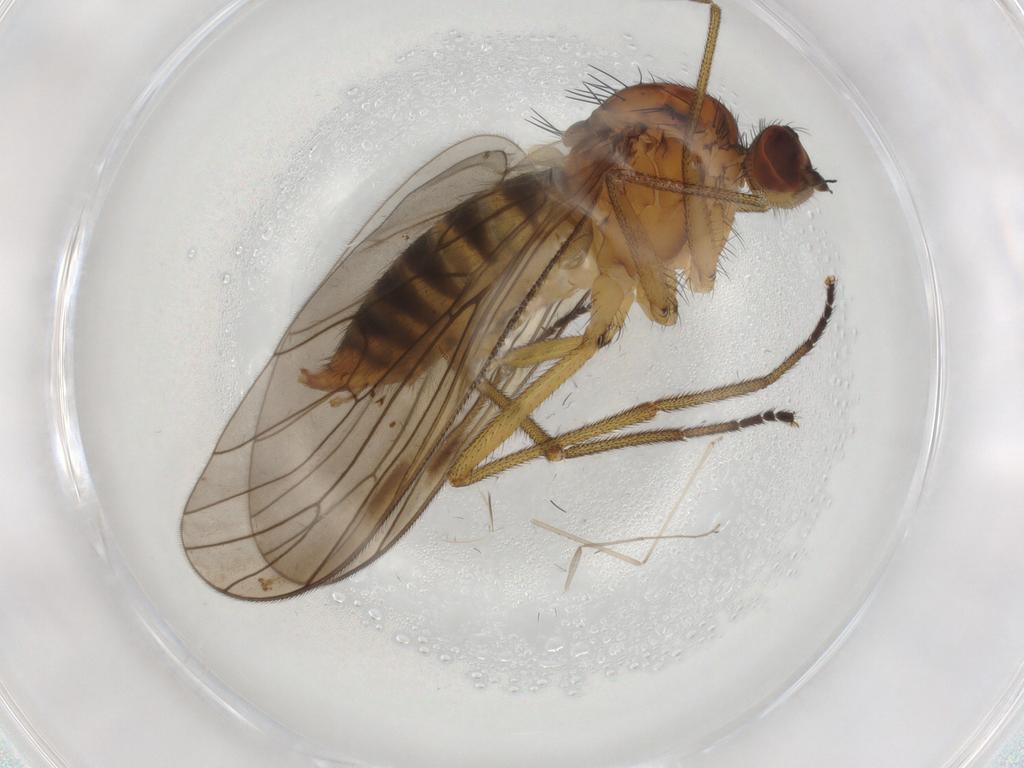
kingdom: Animalia
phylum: Arthropoda
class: Insecta
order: Diptera
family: Brachystomatidae
